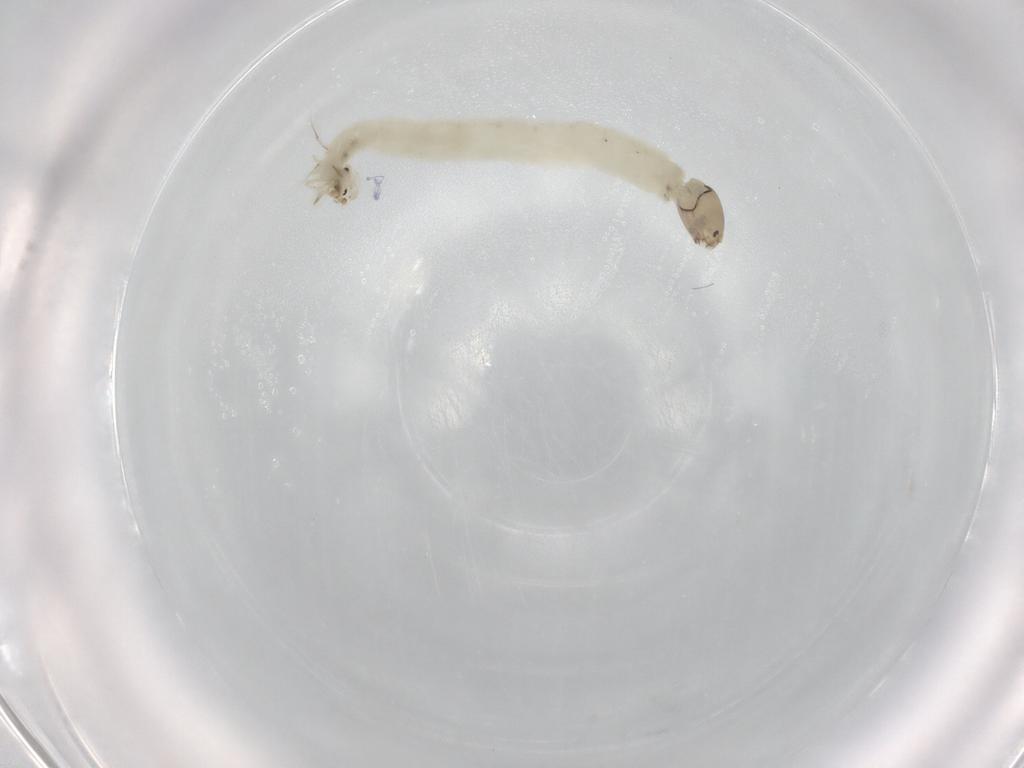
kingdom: Animalia
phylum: Arthropoda
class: Insecta
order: Diptera
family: Chironomidae
